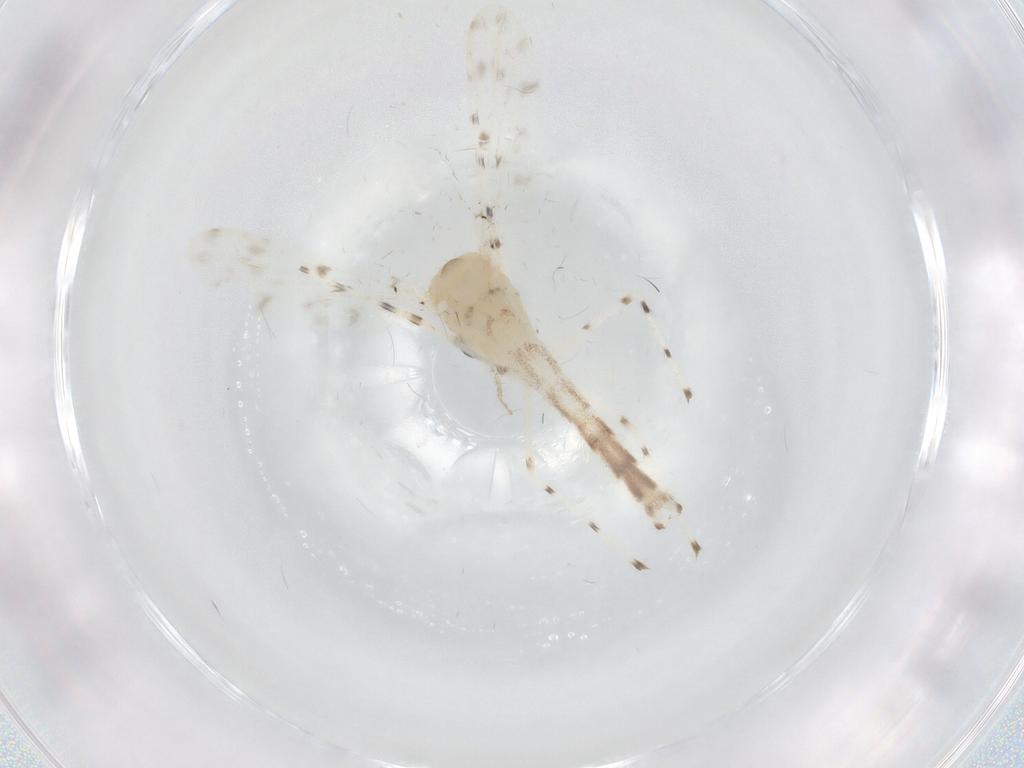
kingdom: Animalia
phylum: Arthropoda
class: Insecta
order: Diptera
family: Chironomidae
